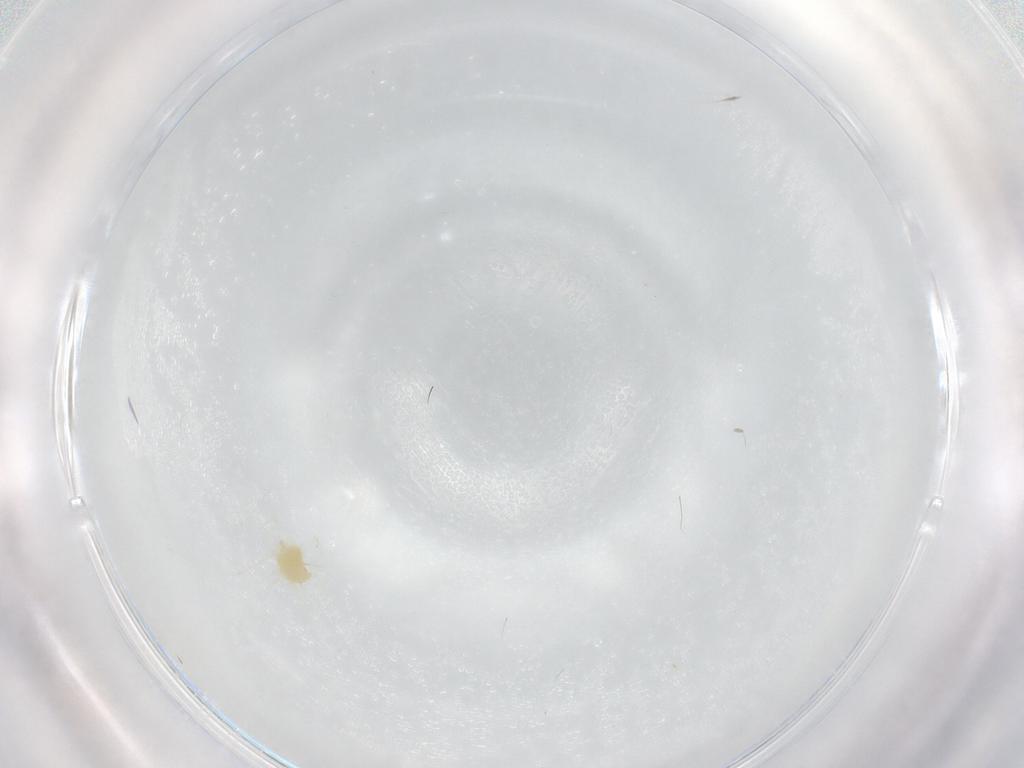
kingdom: Animalia
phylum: Arthropoda
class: Arachnida
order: Trombidiformes
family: Tetranychidae
